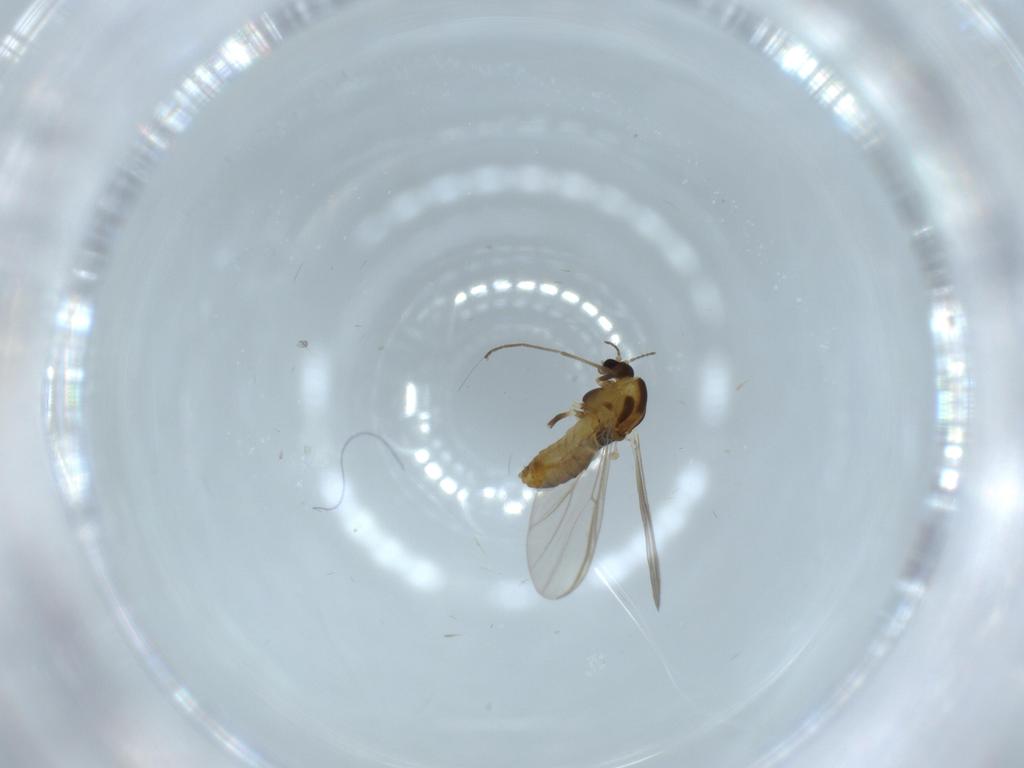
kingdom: Animalia
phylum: Arthropoda
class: Insecta
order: Diptera
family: Chironomidae
